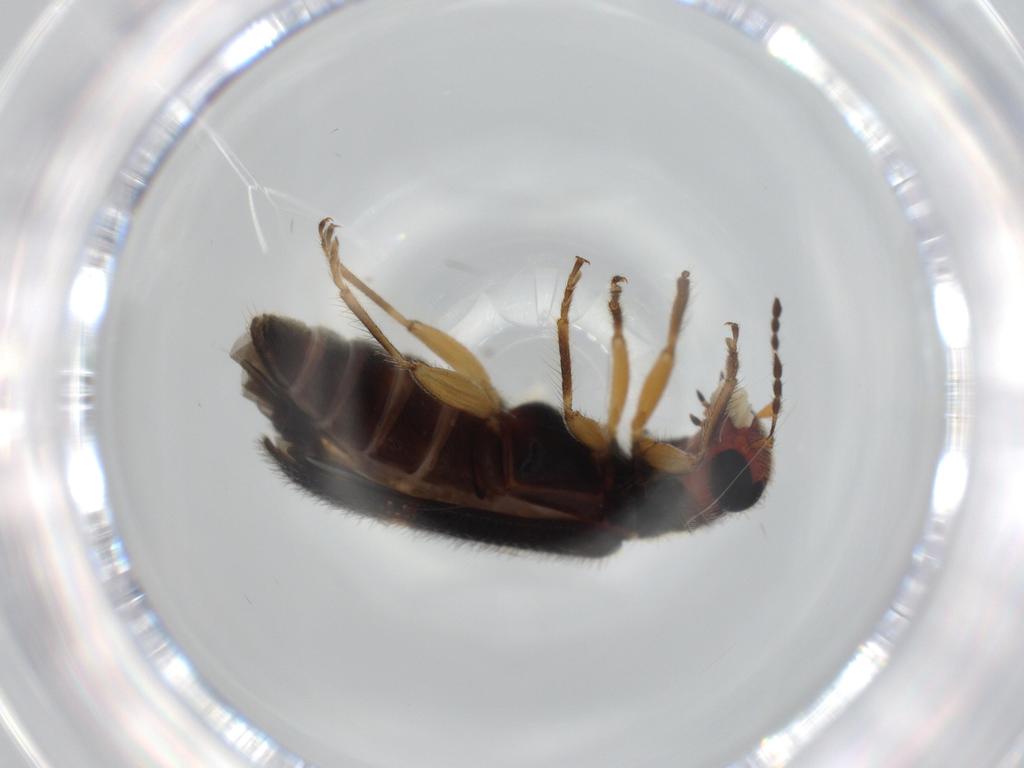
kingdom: Animalia
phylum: Arthropoda
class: Insecta
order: Coleoptera
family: Cleridae
